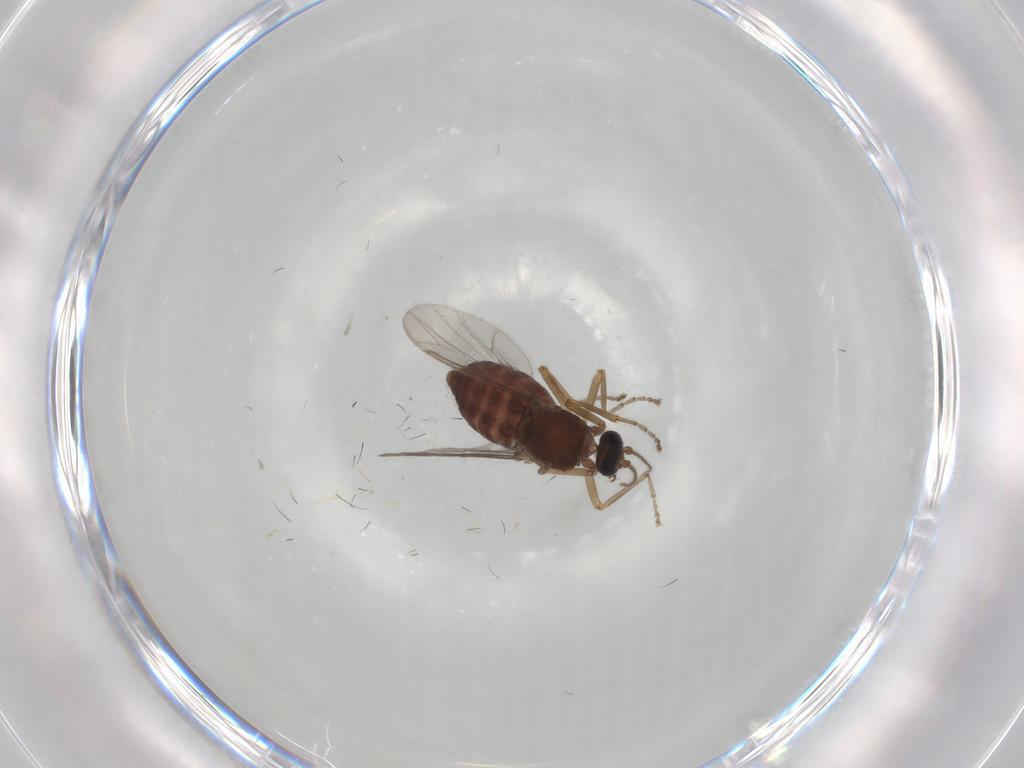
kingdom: Animalia
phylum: Arthropoda
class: Insecta
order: Diptera
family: Ceratopogonidae
